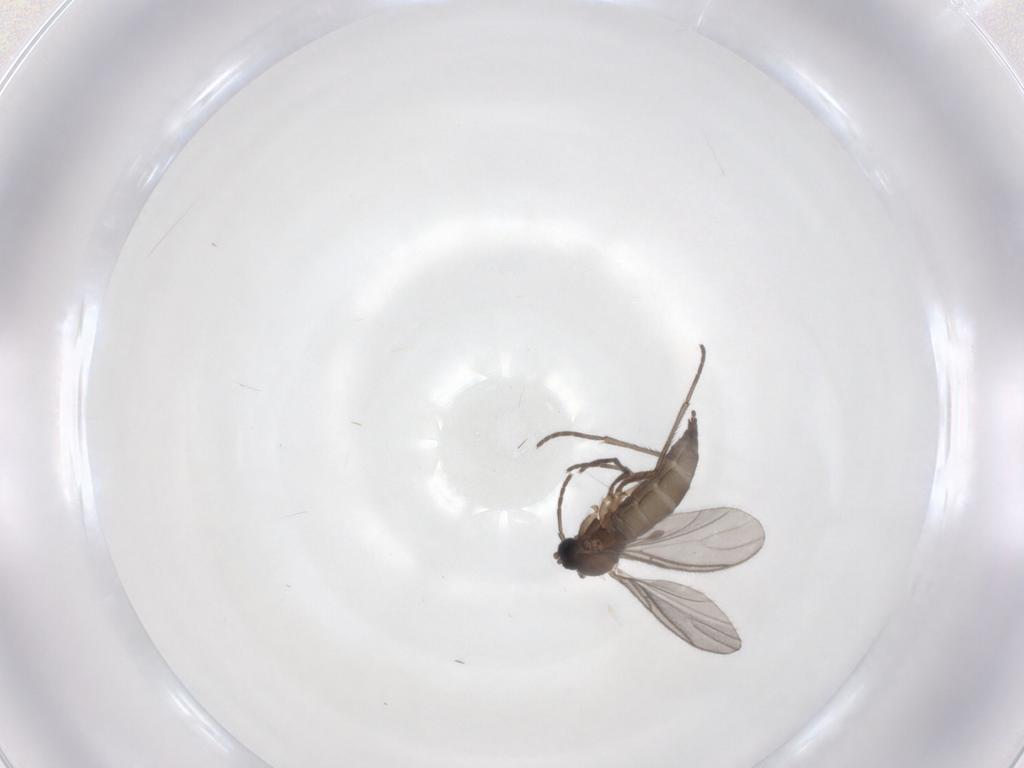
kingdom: Animalia
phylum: Arthropoda
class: Insecta
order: Diptera
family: Sciaridae
